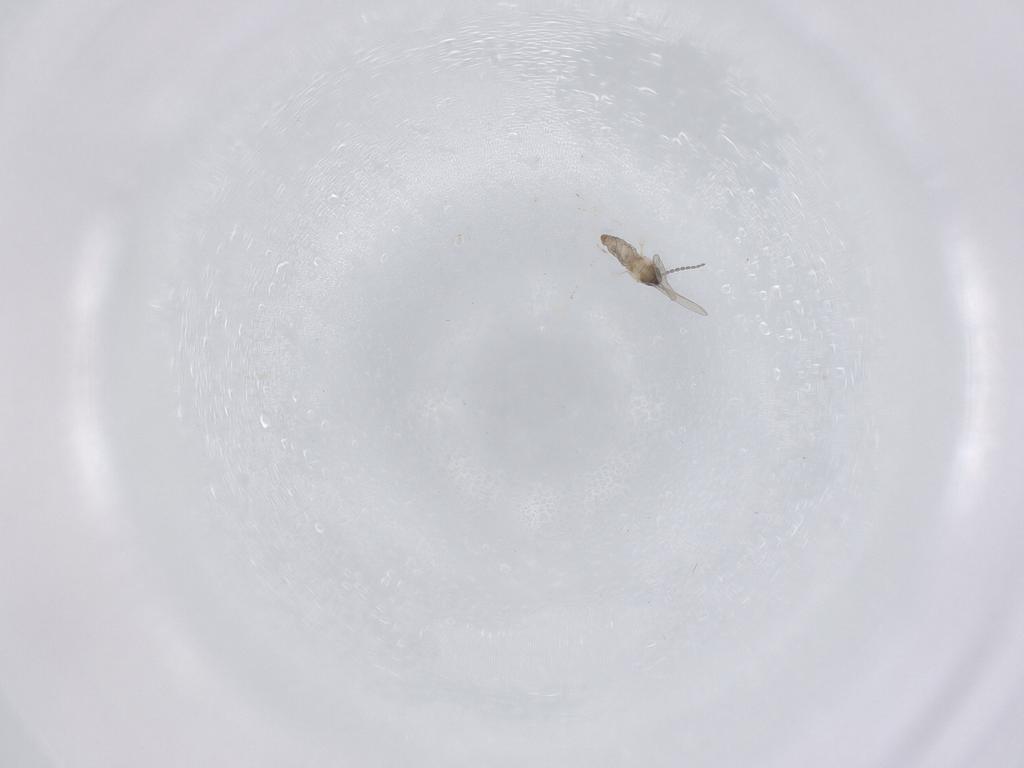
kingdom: Animalia
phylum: Arthropoda
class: Insecta
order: Diptera
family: Cecidomyiidae
